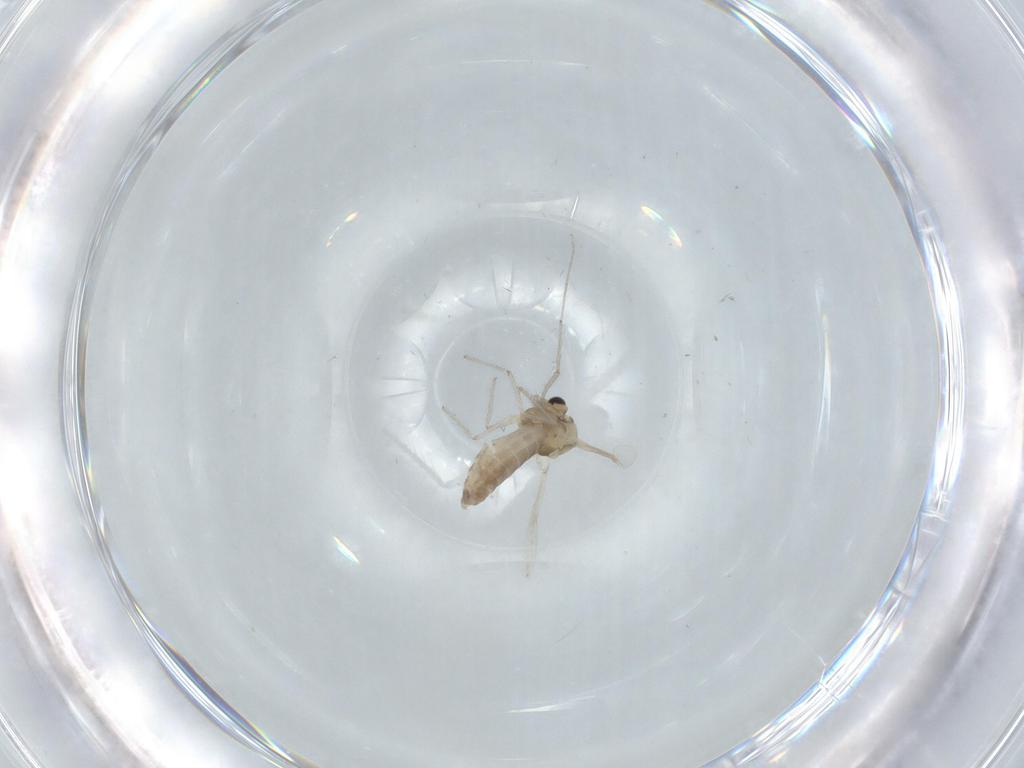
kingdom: Animalia
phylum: Arthropoda
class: Insecta
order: Diptera
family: Chironomidae
